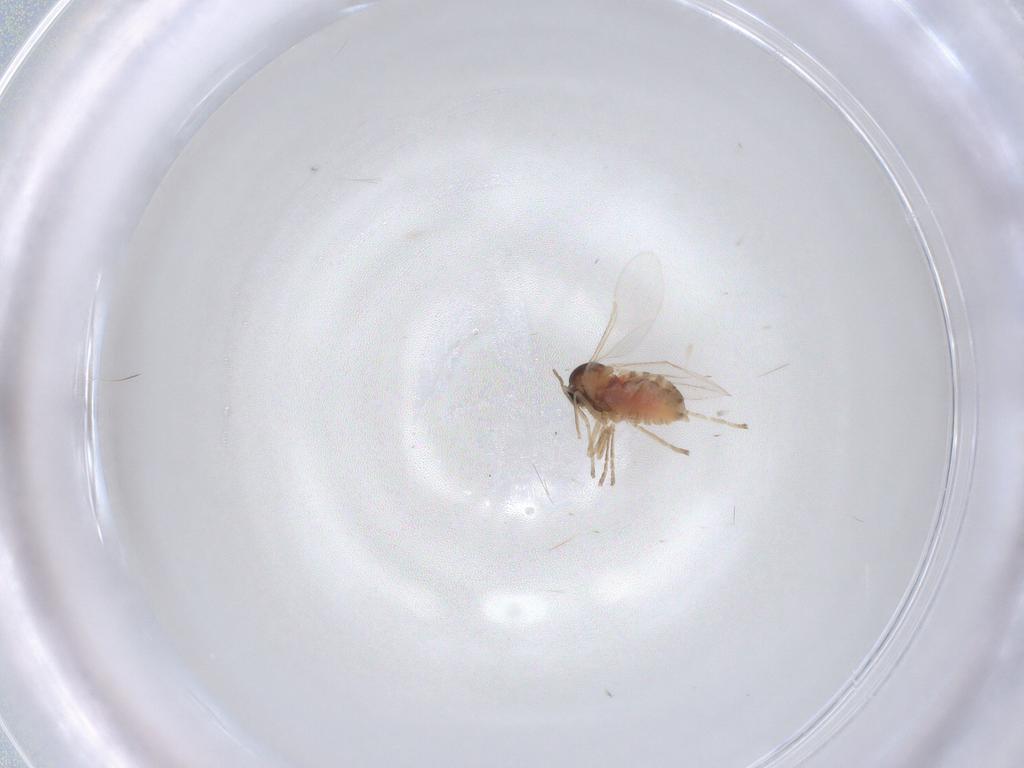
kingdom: Animalia
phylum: Arthropoda
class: Insecta
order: Diptera
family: Cecidomyiidae
